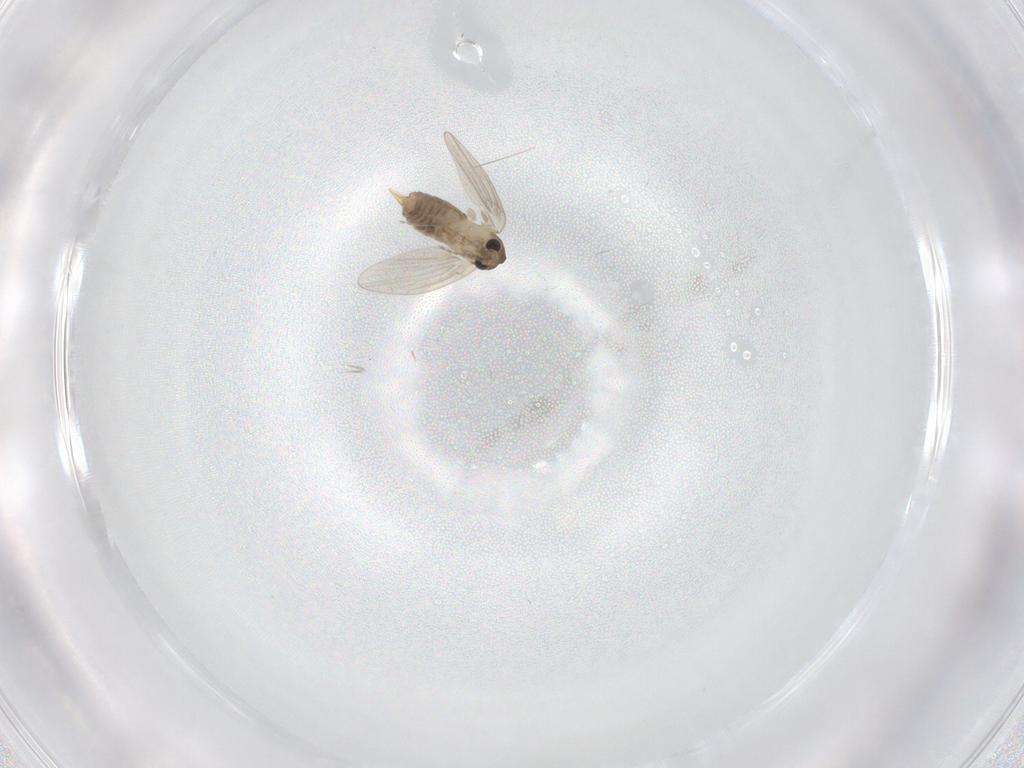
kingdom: Animalia
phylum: Arthropoda
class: Insecta
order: Diptera
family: Psychodidae
